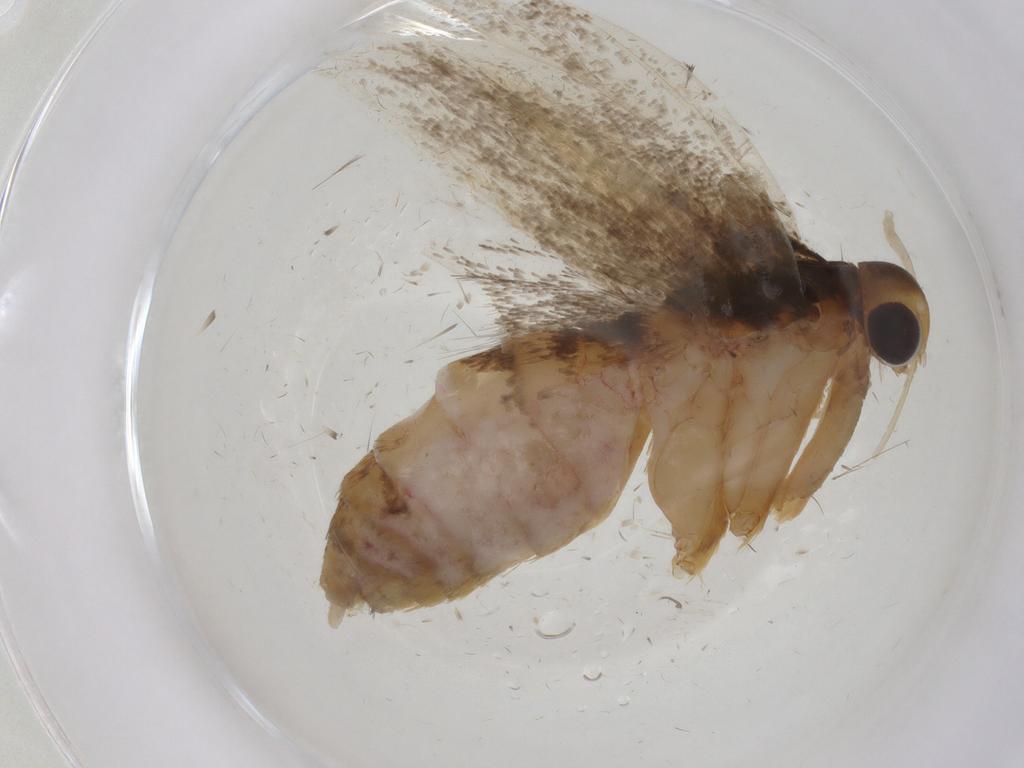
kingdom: Animalia
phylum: Arthropoda
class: Insecta
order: Lepidoptera
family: Lecithoceridae
